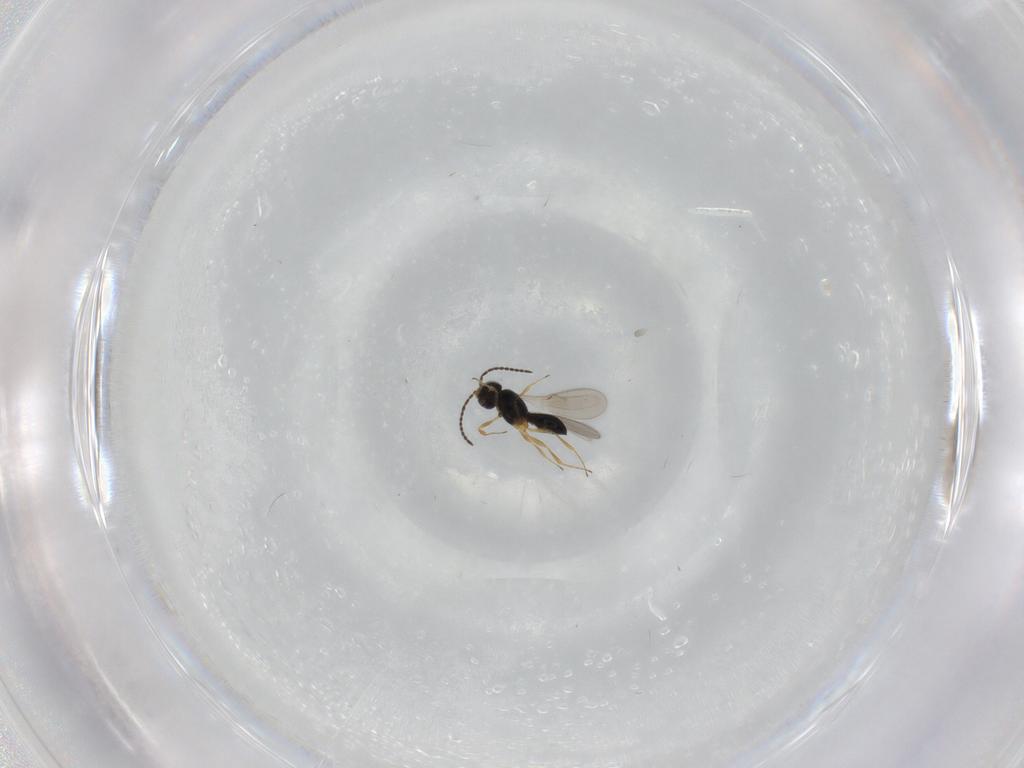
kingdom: Animalia
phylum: Arthropoda
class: Insecta
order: Hymenoptera
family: Scelionidae
